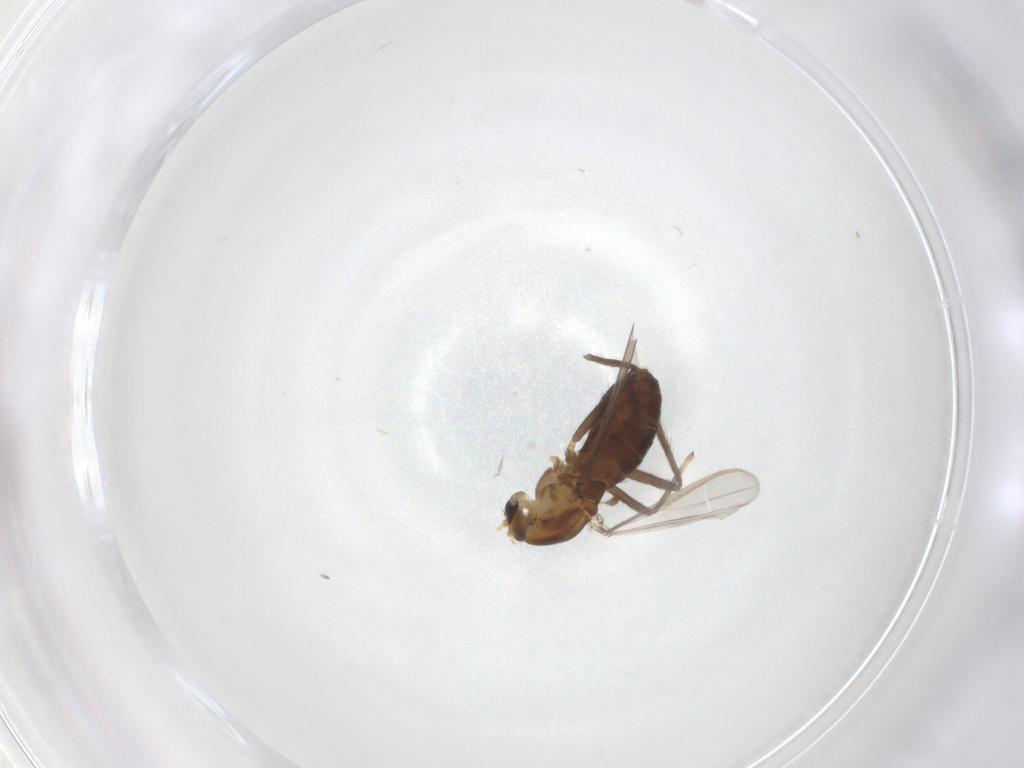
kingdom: Animalia
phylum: Arthropoda
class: Insecta
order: Diptera
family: Chironomidae
